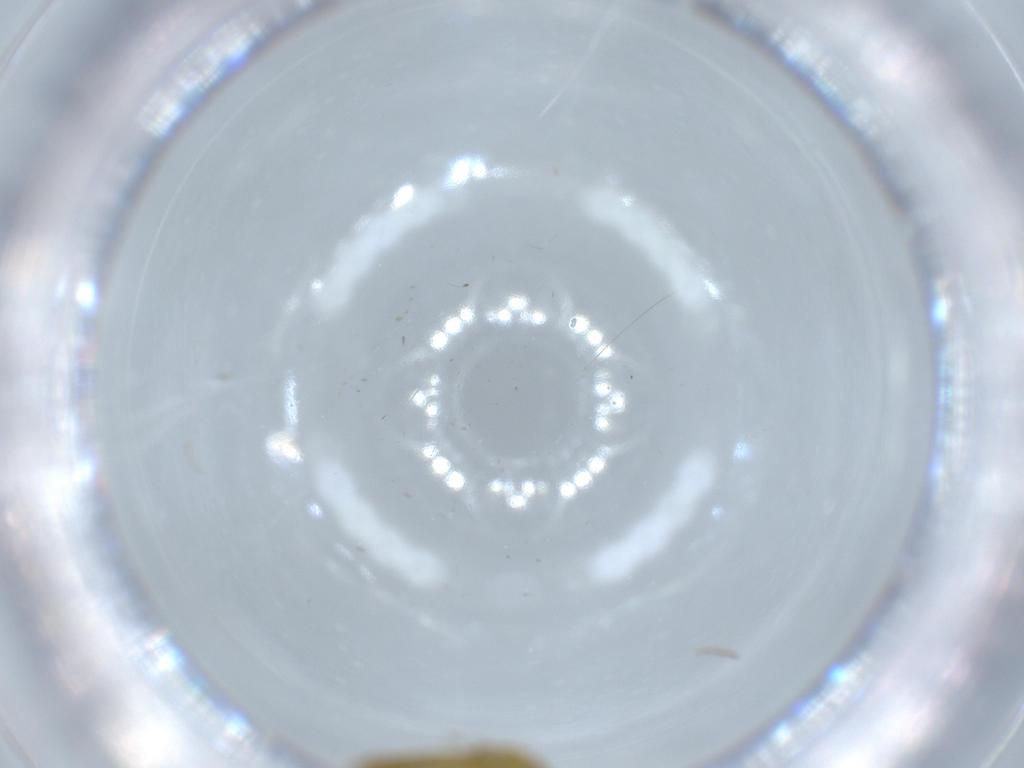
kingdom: Animalia
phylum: Arthropoda
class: Insecta
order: Diptera
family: Chironomidae
